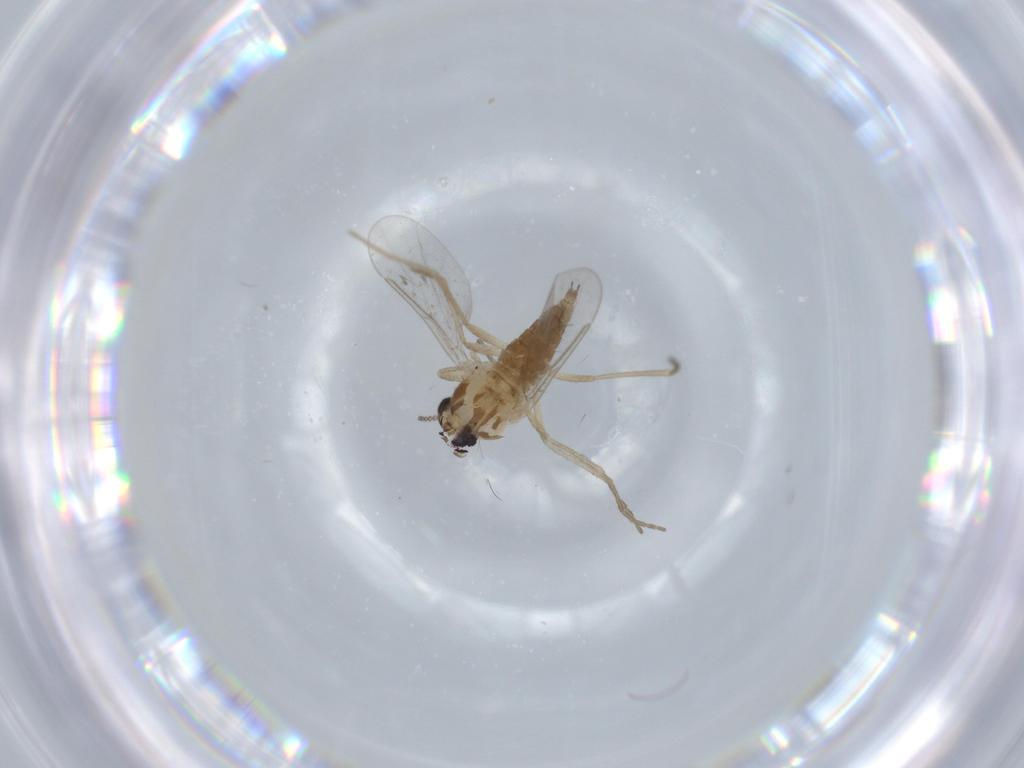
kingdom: Animalia
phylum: Arthropoda
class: Insecta
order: Diptera
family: Cecidomyiidae
